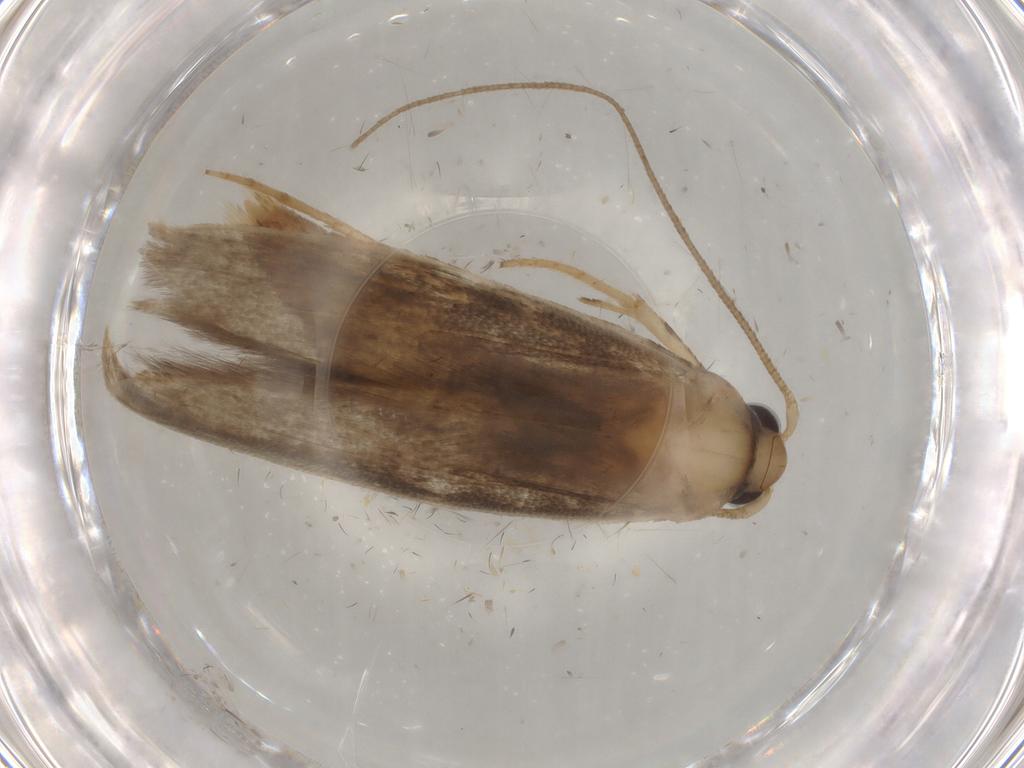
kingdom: Animalia
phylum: Arthropoda
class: Insecta
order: Lepidoptera
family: Yponomeutidae
